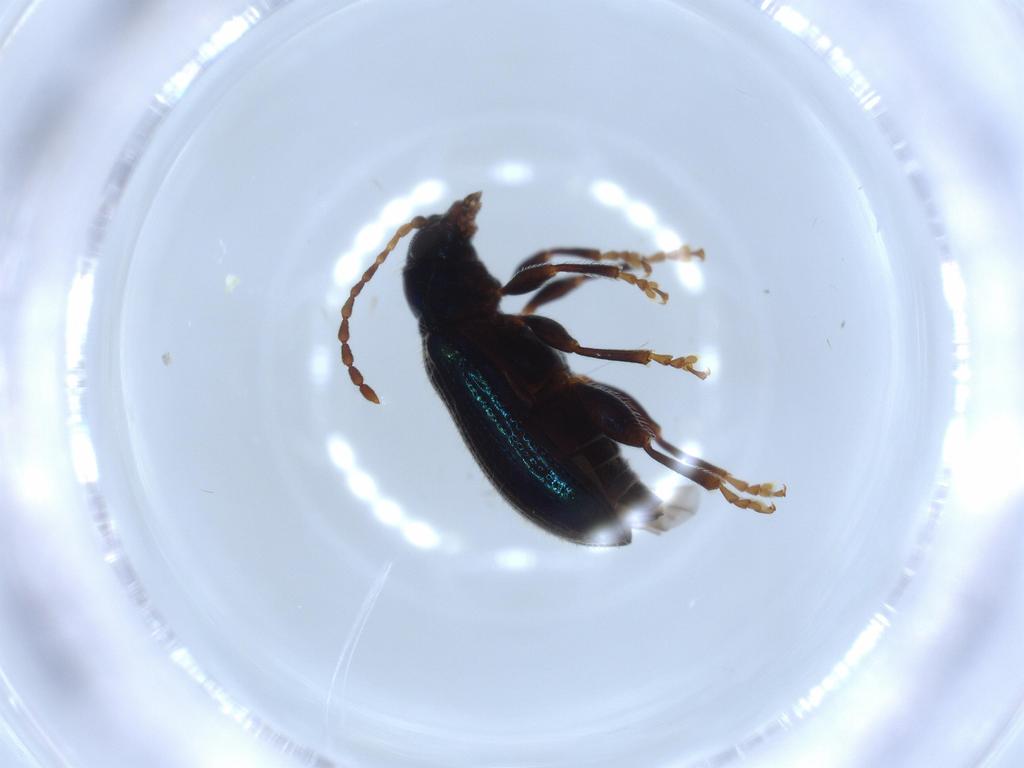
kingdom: Animalia
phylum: Arthropoda
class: Insecta
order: Coleoptera
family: Chrysomelidae
